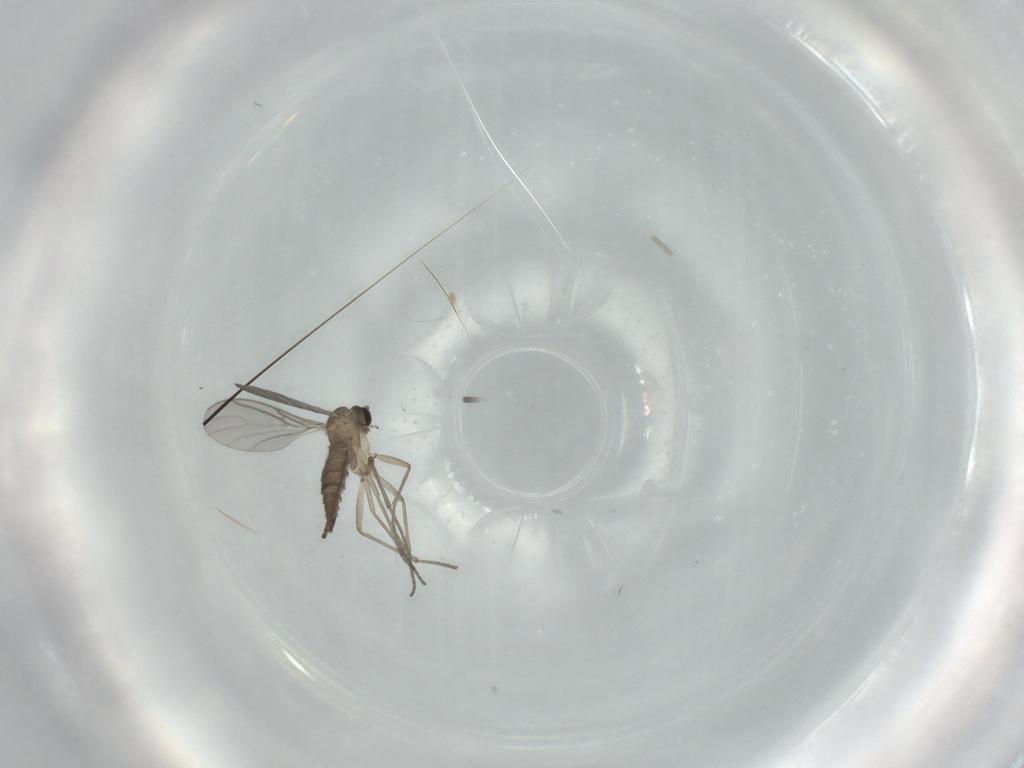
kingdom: Animalia
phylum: Arthropoda
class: Insecta
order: Diptera
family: Sciaridae
